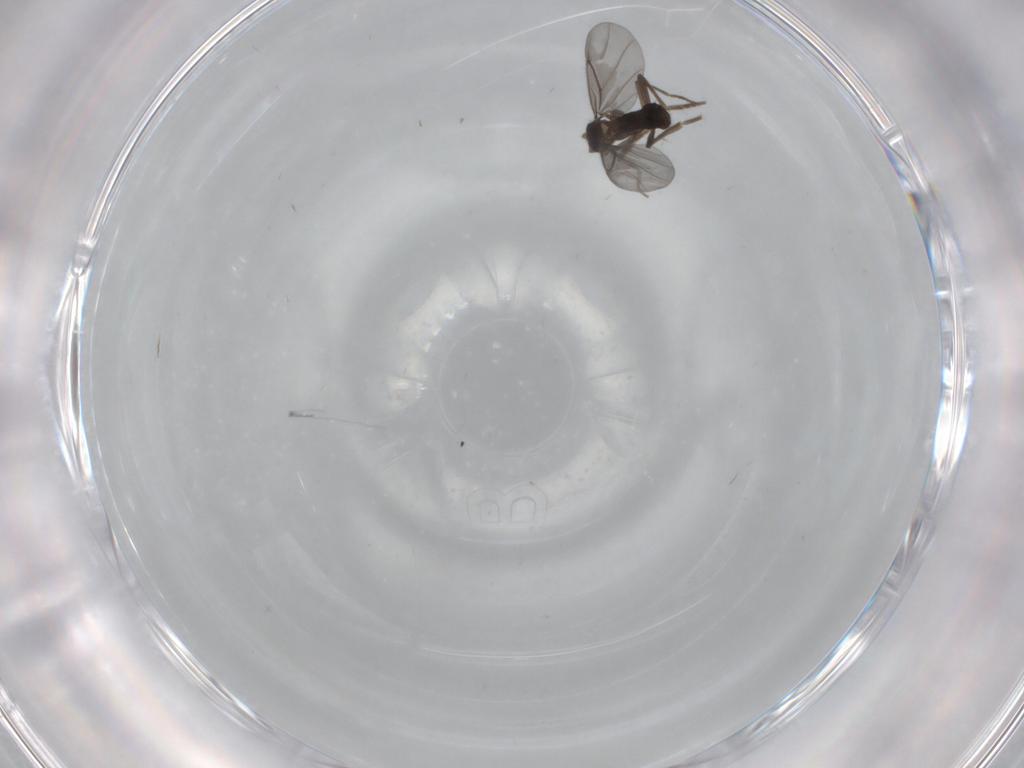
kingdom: Animalia
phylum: Arthropoda
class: Insecta
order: Diptera
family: Phoridae
